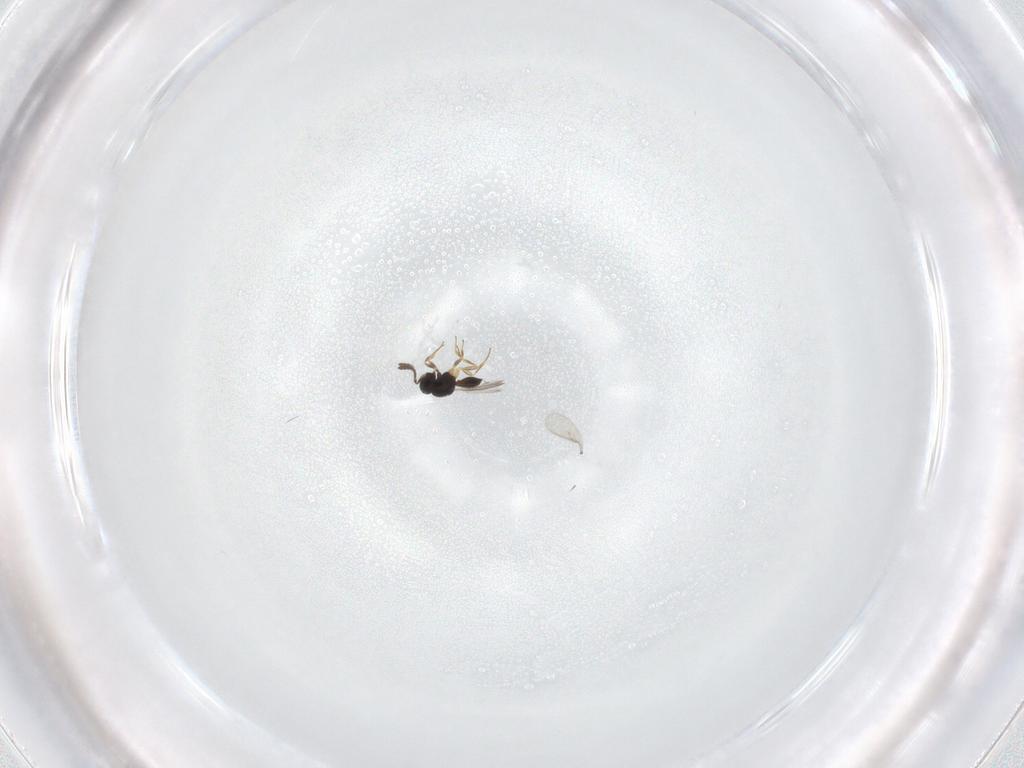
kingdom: Animalia
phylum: Arthropoda
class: Insecta
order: Hymenoptera
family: Scelionidae
